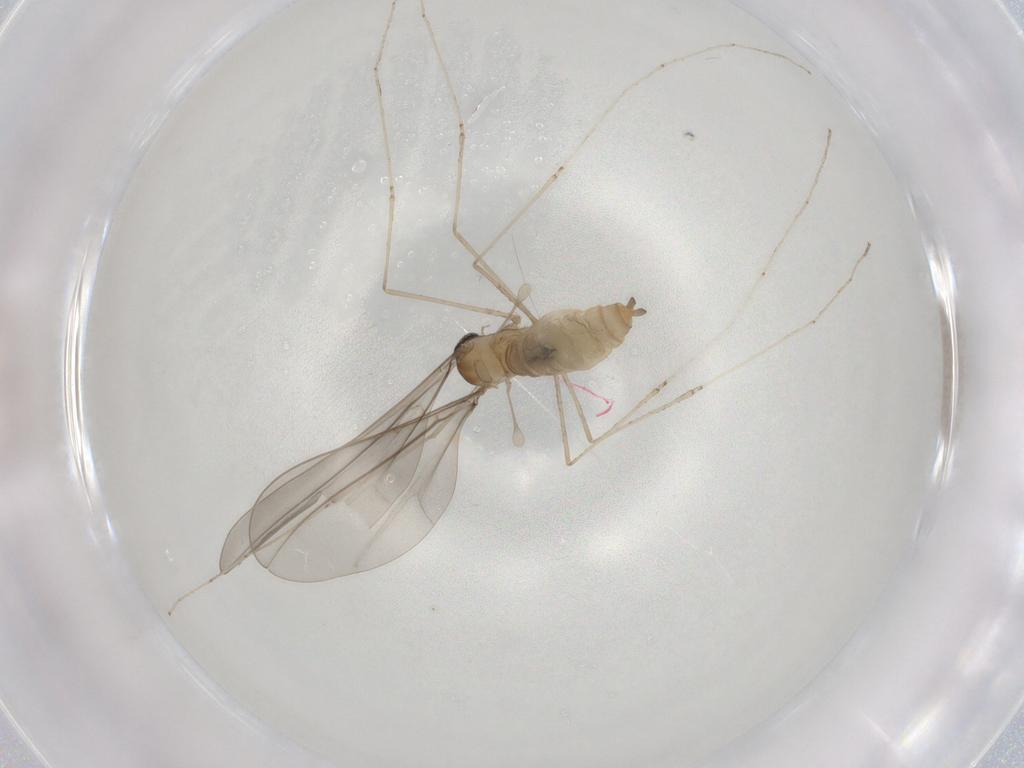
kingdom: Animalia
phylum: Arthropoda
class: Insecta
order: Diptera
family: Cecidomyiidae
